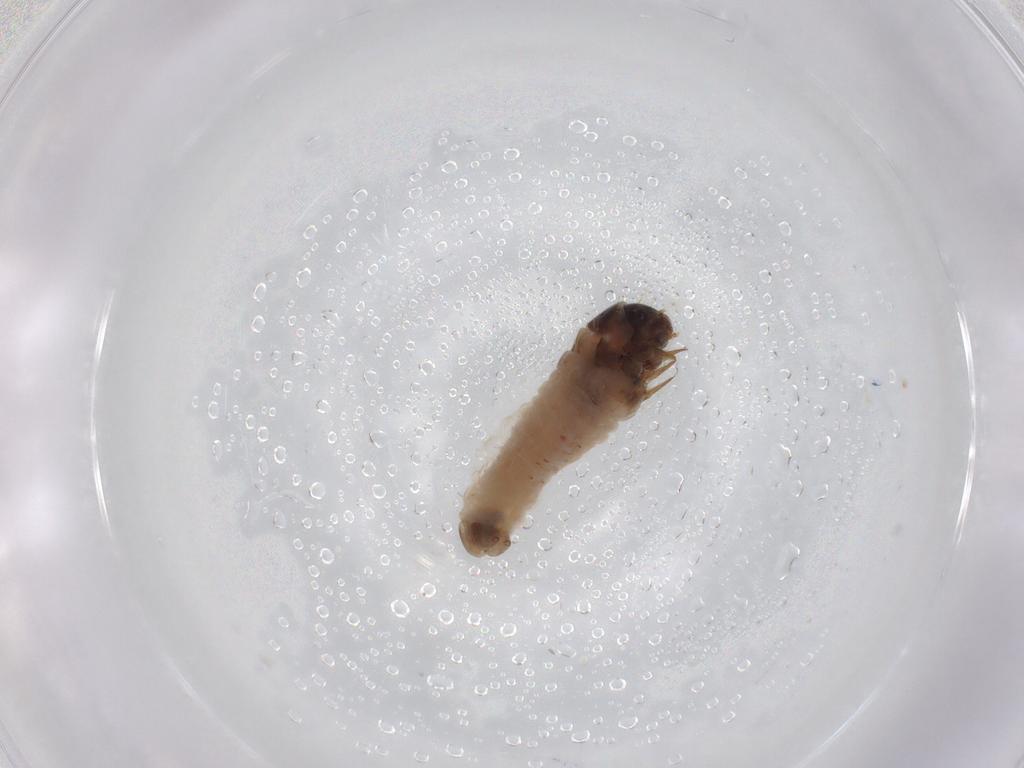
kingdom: Animalia
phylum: Arthropoda
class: Insecta
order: Lepidoptera
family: Psychidae
